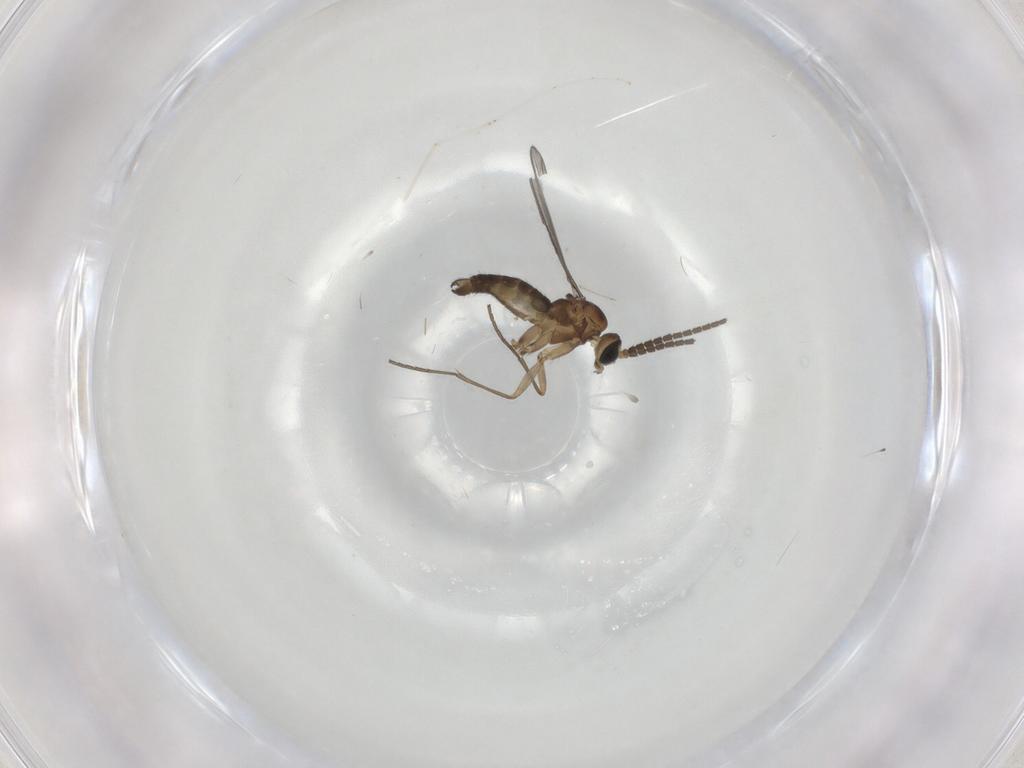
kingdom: Animalia
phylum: Arthropoda
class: Insecta
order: Diptera
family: Sciaridae
